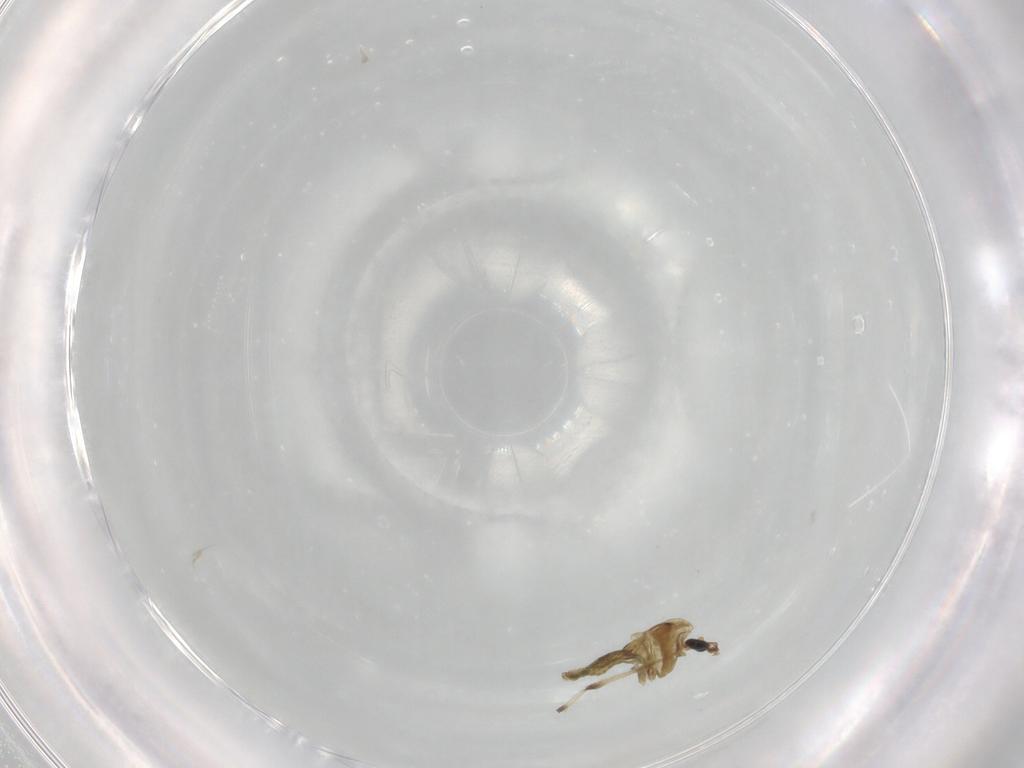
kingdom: Animalia
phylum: Arthropoda
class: Insecta
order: Diptera
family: Chironomidae
